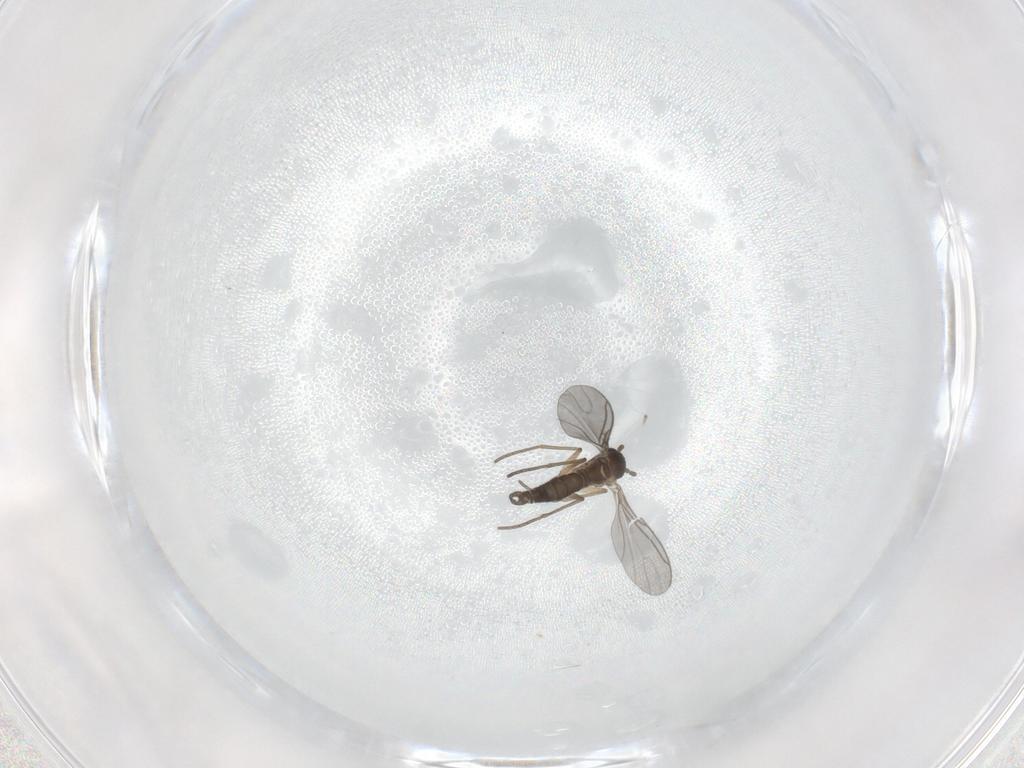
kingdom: Animalia
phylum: Arthropoda
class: Insecta
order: Diptera
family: Sciaridae
